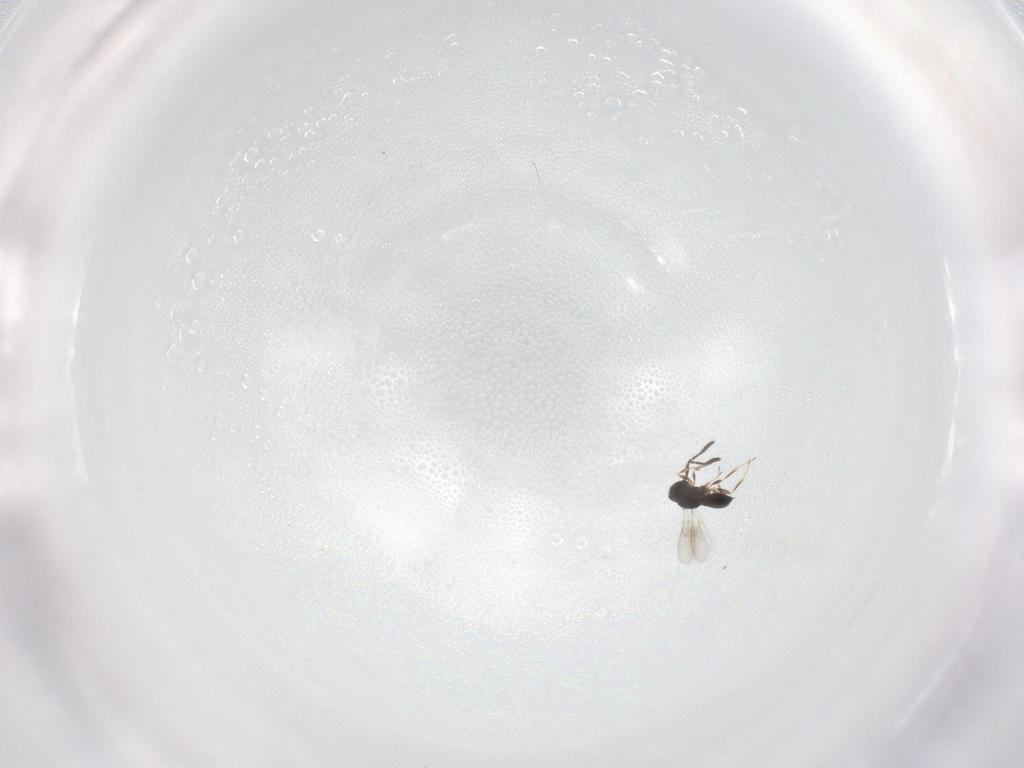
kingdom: Animalia
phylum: Arthropoda
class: Insecta
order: Hymenoptera
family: Scelionidae
